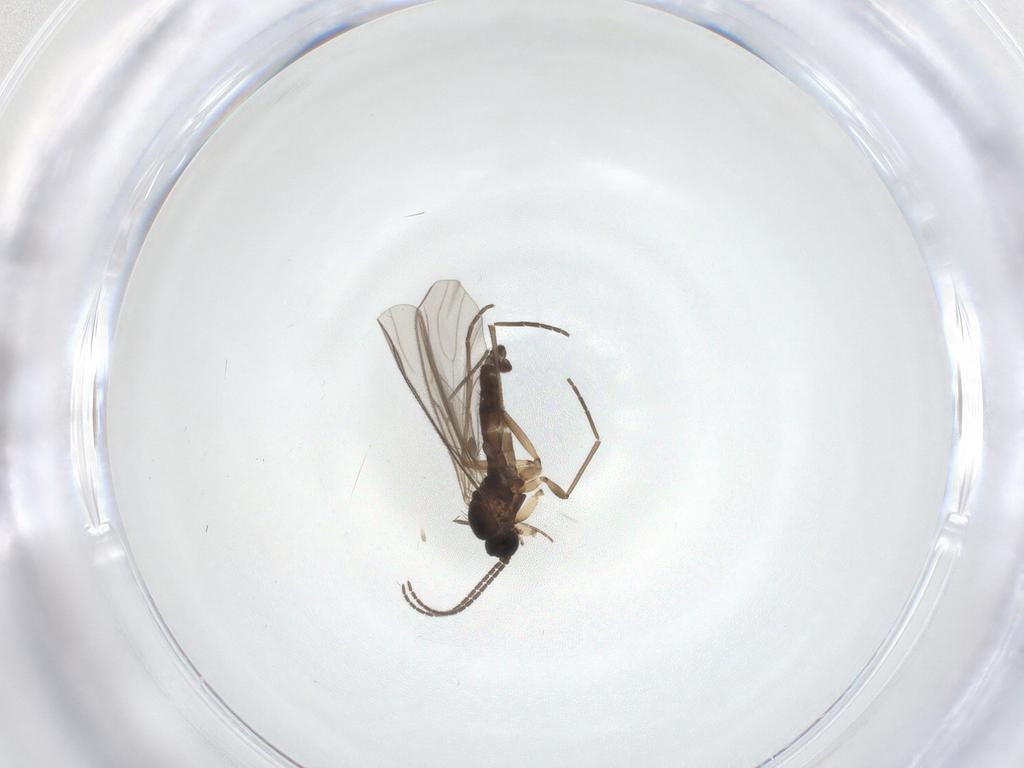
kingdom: Animalia
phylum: Arthropoda
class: Insecta
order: Diptera
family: Sciaridae
